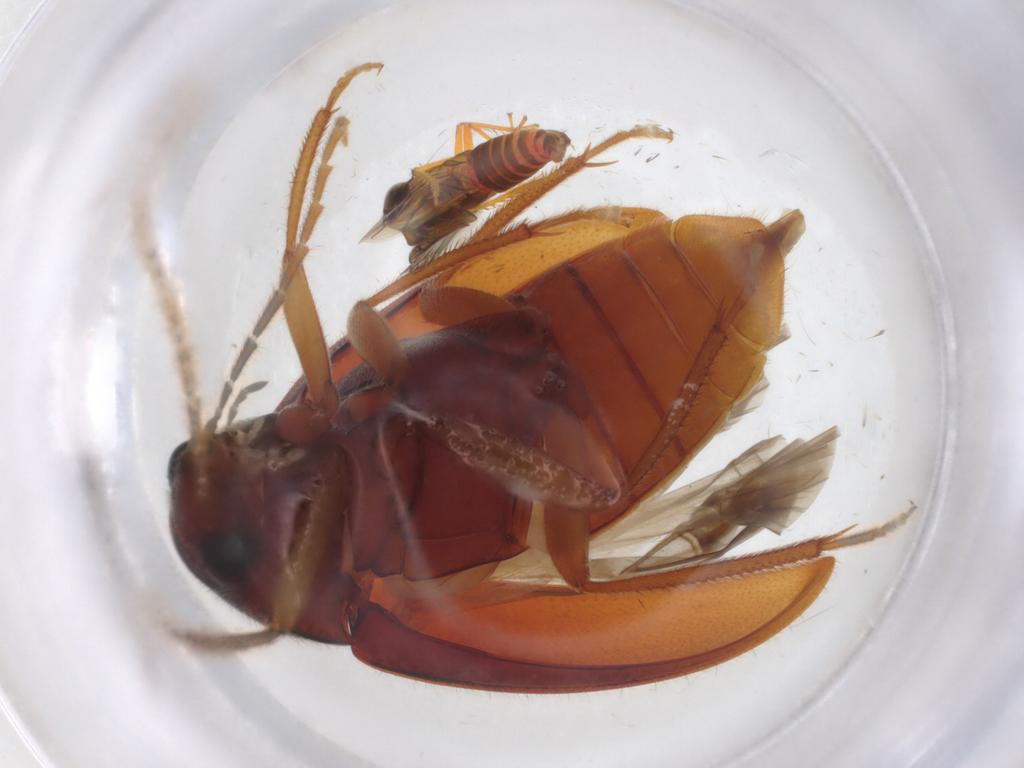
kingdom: Animalia
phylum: Arthropoda
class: Insecta
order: Coleoptera
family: Ptilodactylidae
